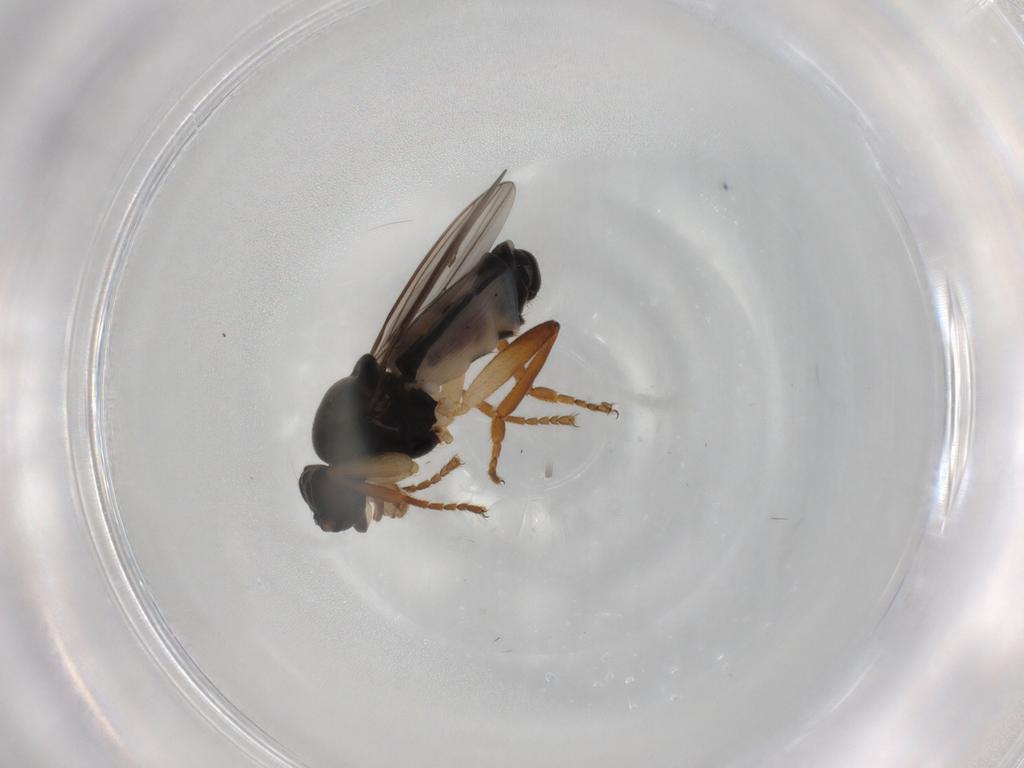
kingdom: Animalia
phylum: Arthropoda
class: Insecta
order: Diptera
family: Sphaeroceridae
